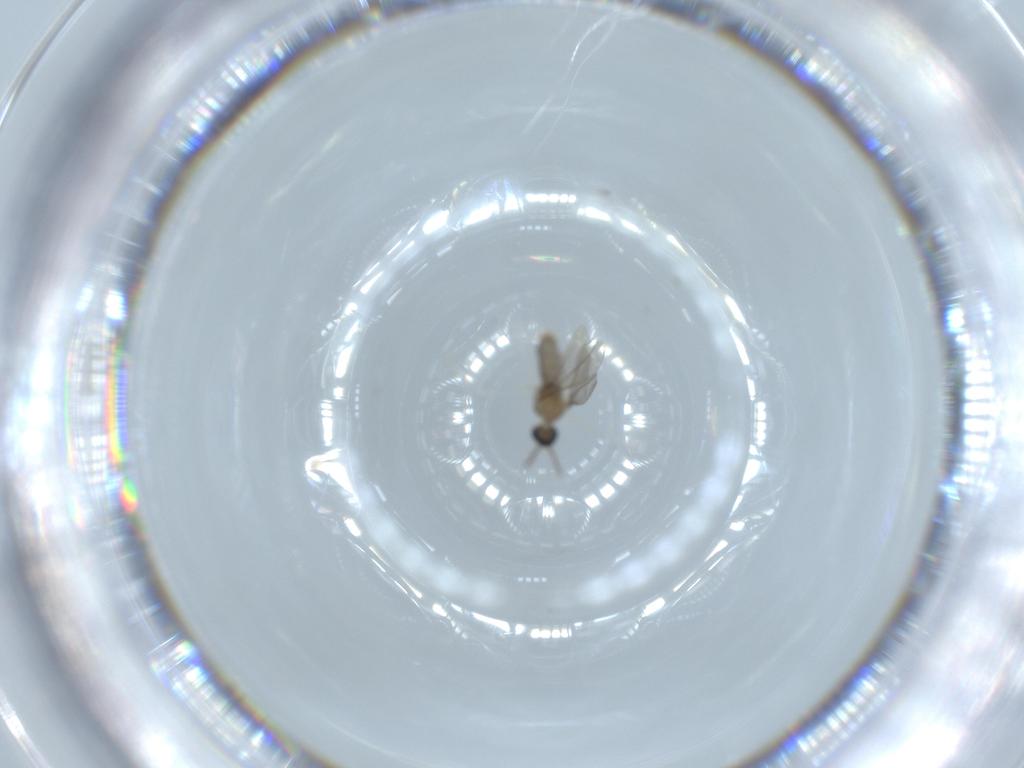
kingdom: Animalia
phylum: Arthropoda
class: Insecta
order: Diptera
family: Cecidomyiidae
